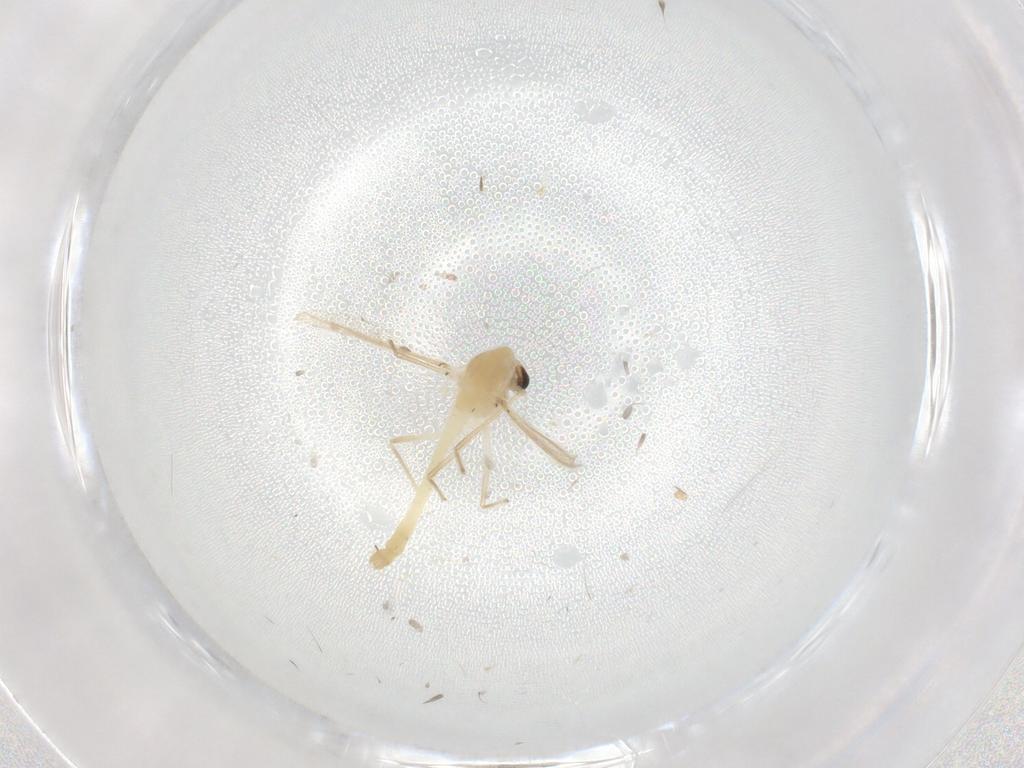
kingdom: Animalia
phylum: Arthropoda
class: Insecta
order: Diptera
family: Chironomidae
